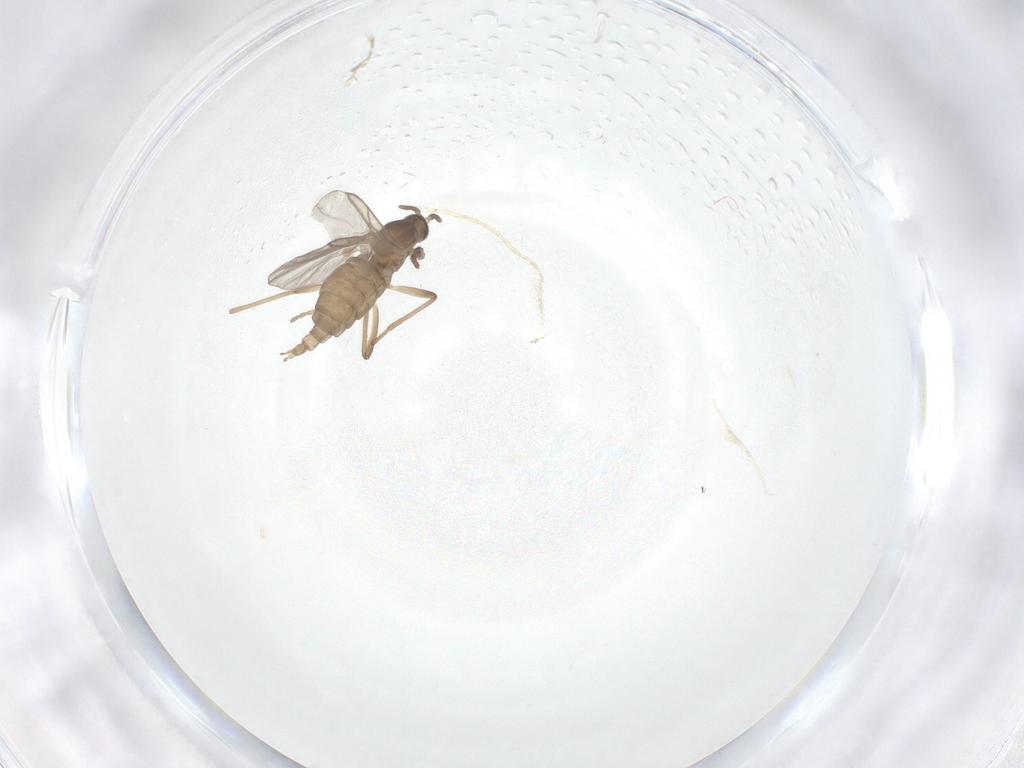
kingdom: Animalia
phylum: Arthropoda
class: Insecta
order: Diptera
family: Cecidomyiidae
